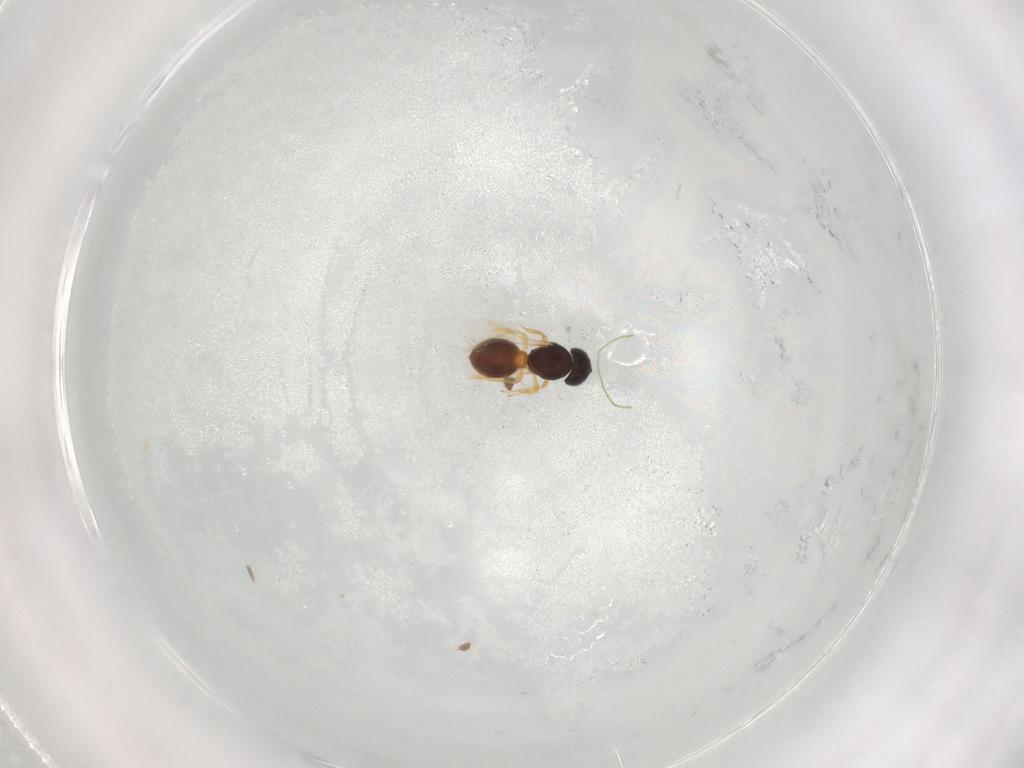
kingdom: Animalia
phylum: Arthropoda
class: Insecta
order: Hymenoptera
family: Scelionidae
